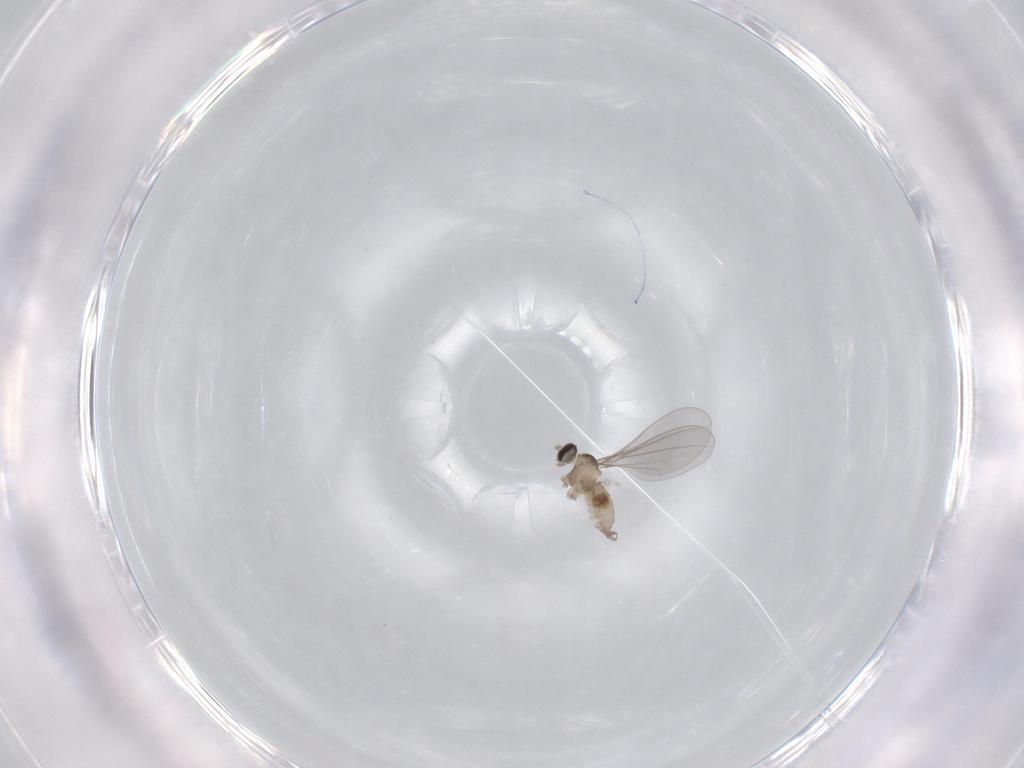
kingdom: Animalia
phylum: Arthropoda
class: Insecta
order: Diptera
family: Cecidomyiidae
